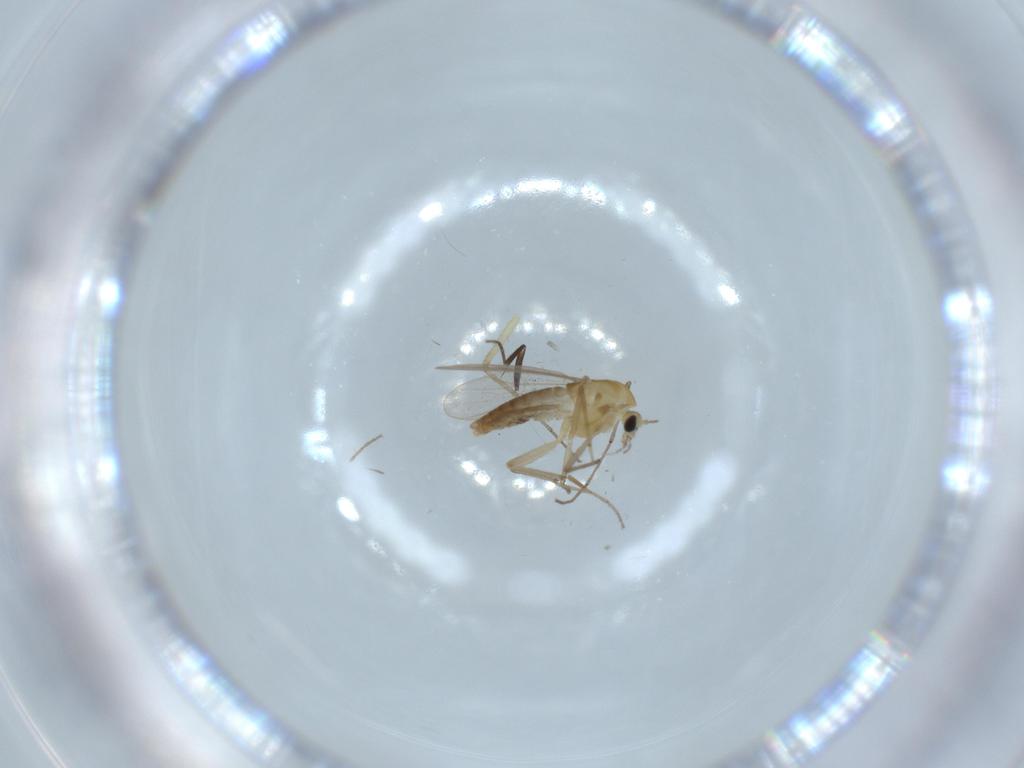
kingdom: Animalia
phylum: Arthropoda
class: Insecta
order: Diptera
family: Chironomidae
